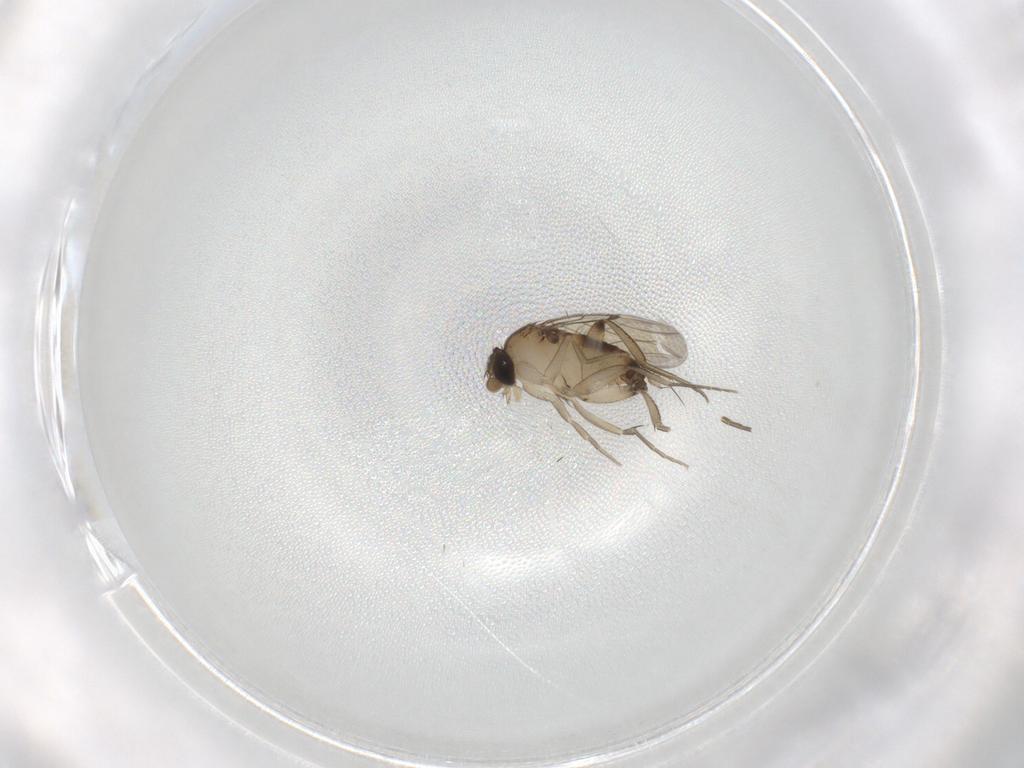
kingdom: Animalia
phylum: Arthropoda
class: Insecta
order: Diptera
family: Phoridae
